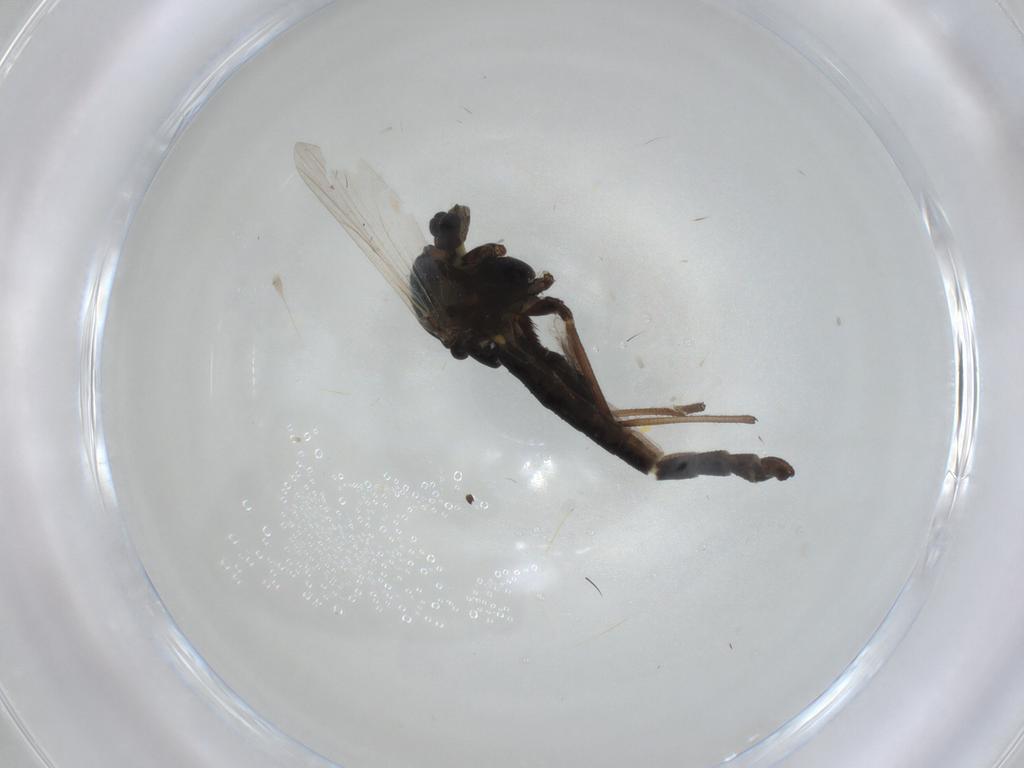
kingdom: Animalia
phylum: Arthropoda
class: Insecta
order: Diptera
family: Chironomidae
